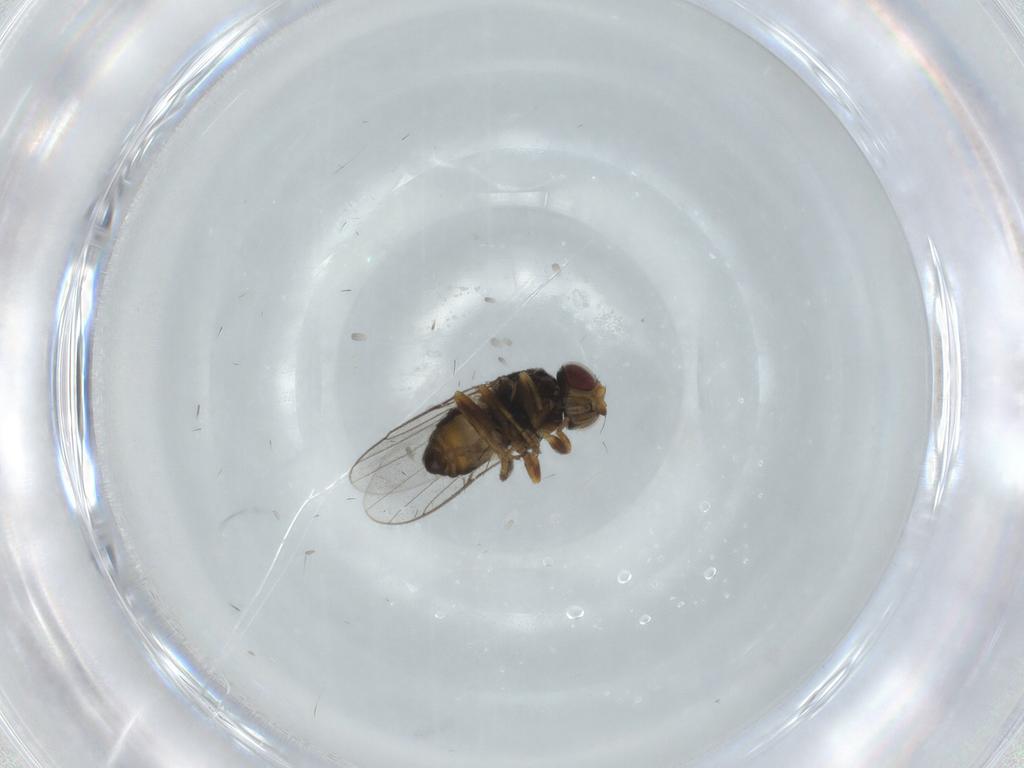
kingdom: Animalia
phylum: Arthropoda
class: Insecta
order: Diptera
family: Chloropidae
